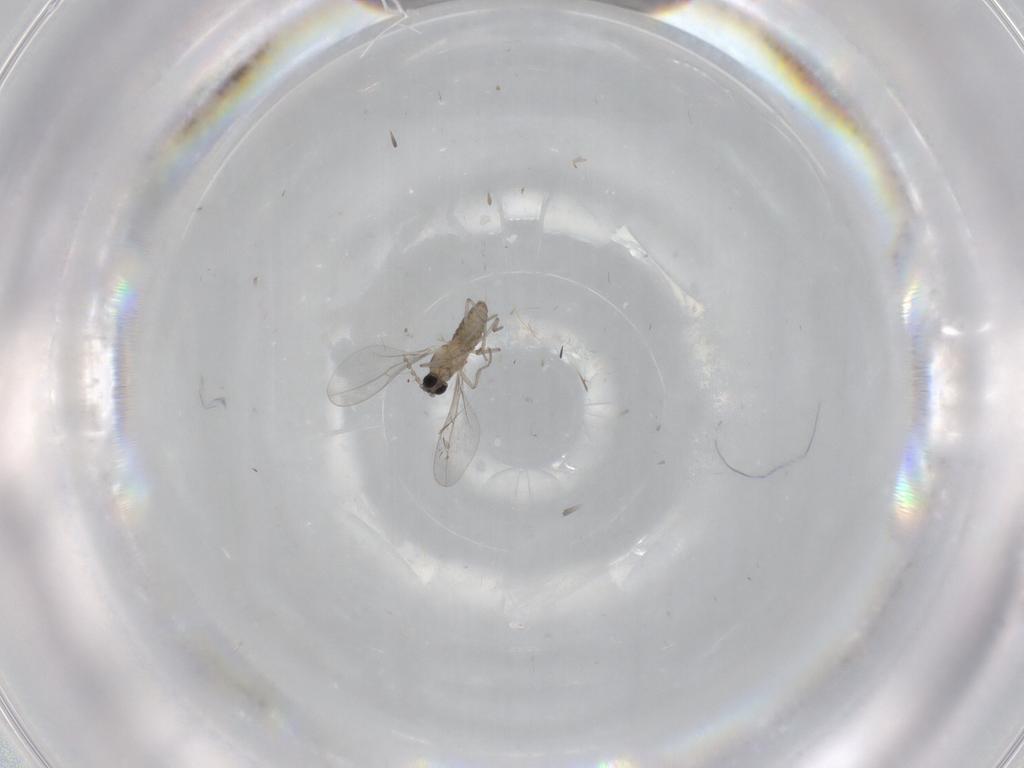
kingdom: Animalia
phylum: Arthropoda
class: Insecta
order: Diptera
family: Cecidomyiidae
